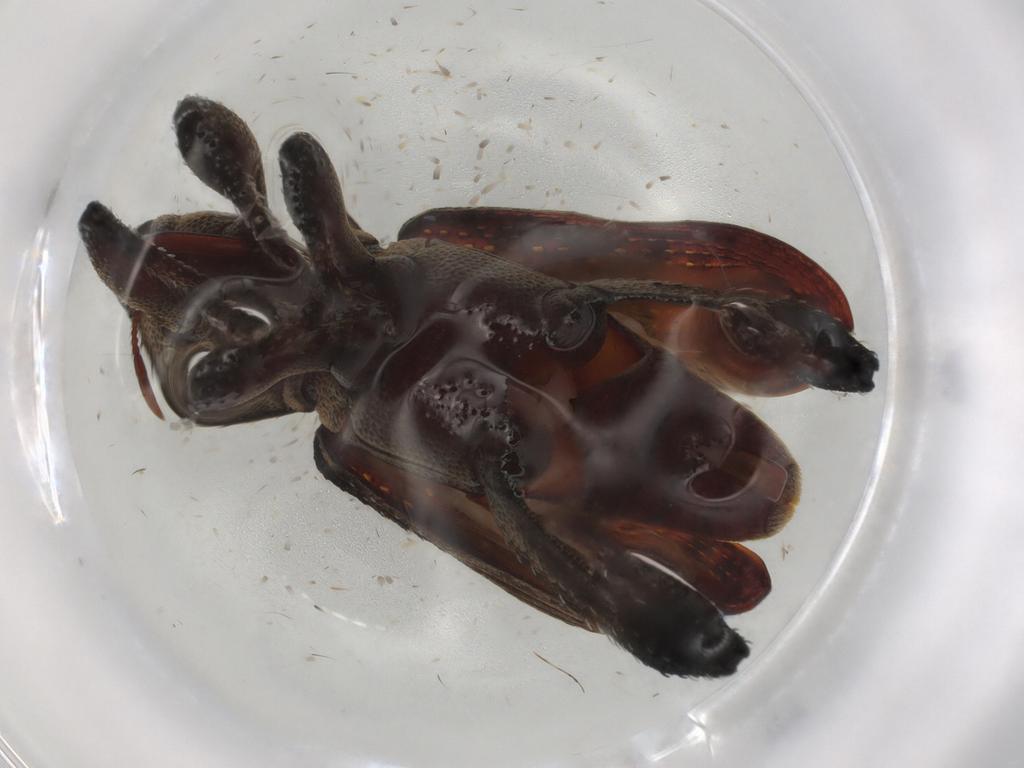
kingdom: Animalia
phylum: Arthropoda
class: Insecta
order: Coleoptera
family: Curculionidae
